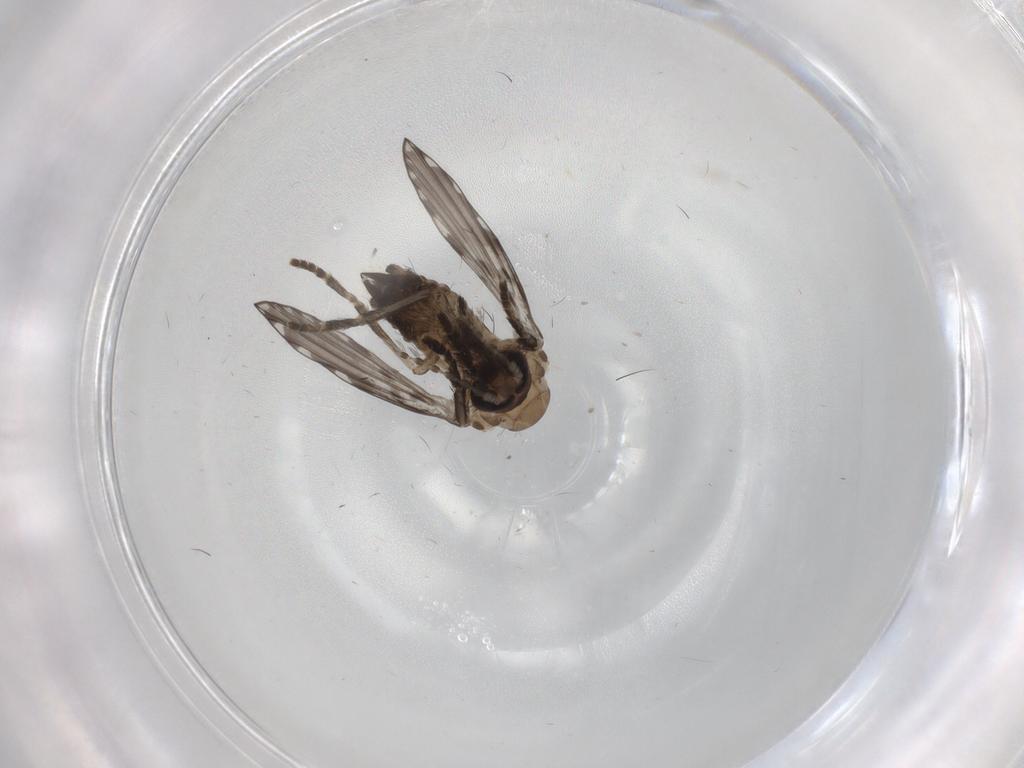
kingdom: Animalia
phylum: Arthropoda
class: Insecta
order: Diptera
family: Psychodidae
